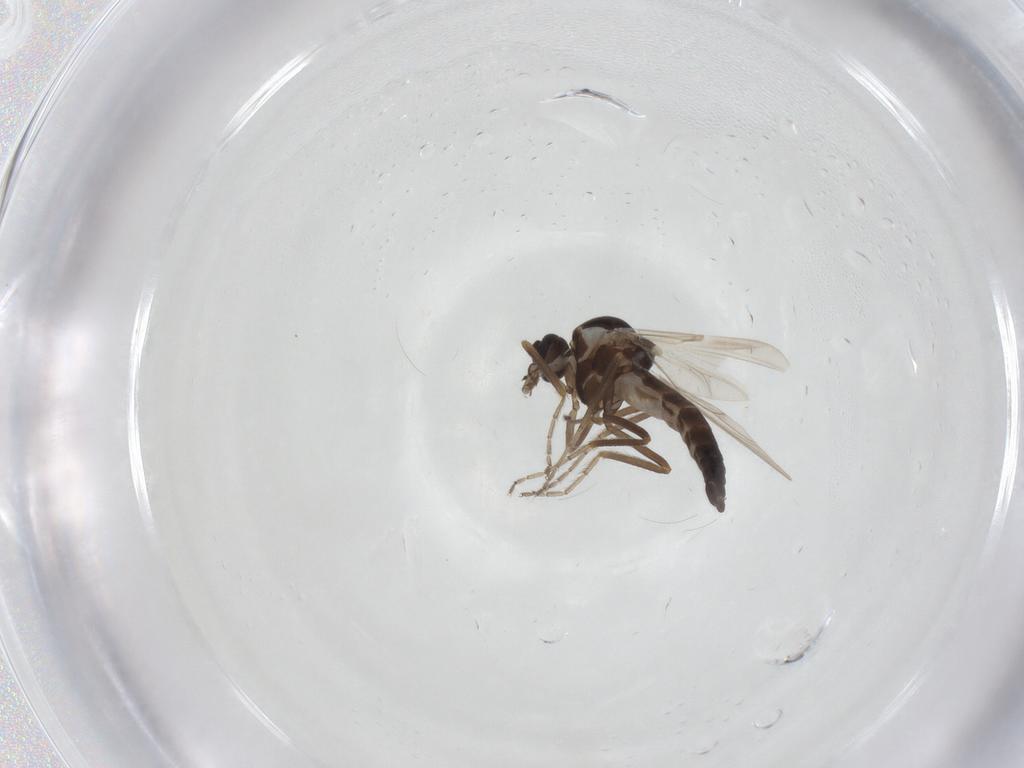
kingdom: Animalia
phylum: Arthropoda
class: Insecta
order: Diptera
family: Ceratopogonidae
